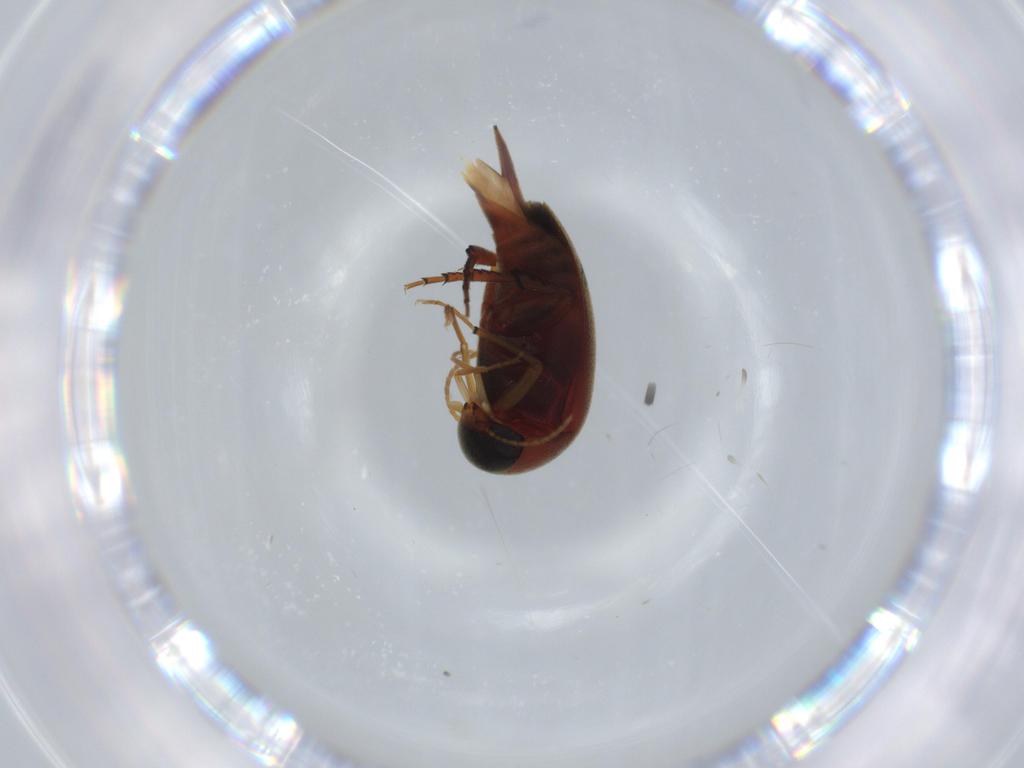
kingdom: Animalia
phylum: Arthropoda
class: Insecta
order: Coleoptera
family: Mordellidae
